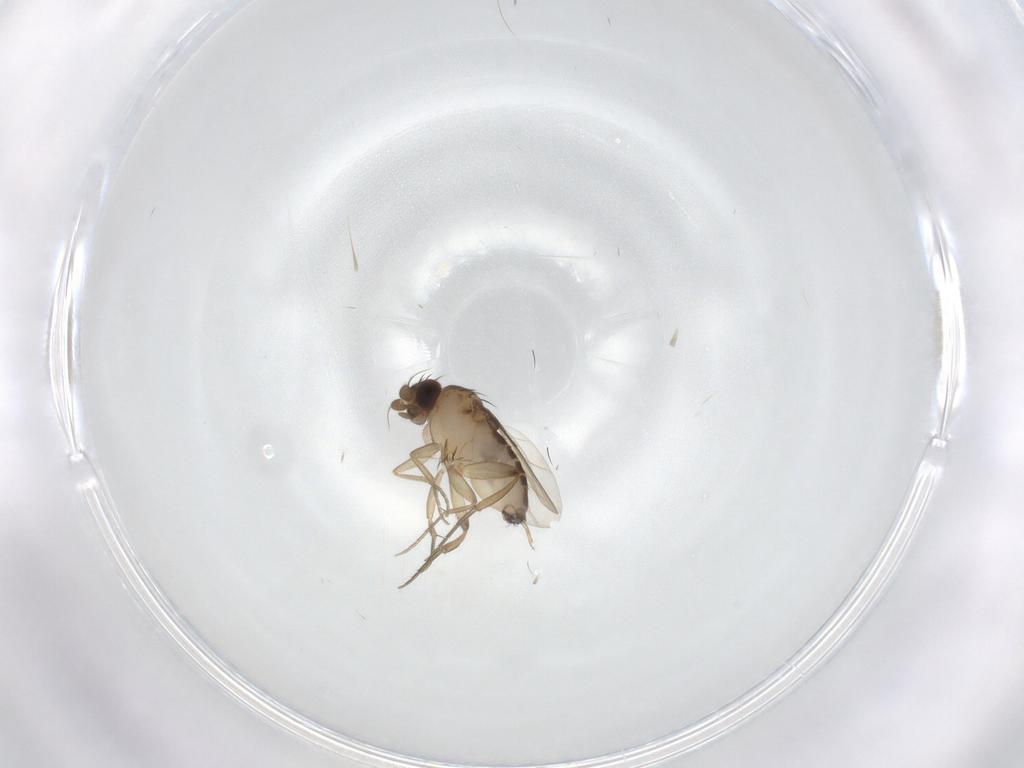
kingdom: Animalia
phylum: Arthropoda
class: Insecta
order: Diptera
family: Phoridae
